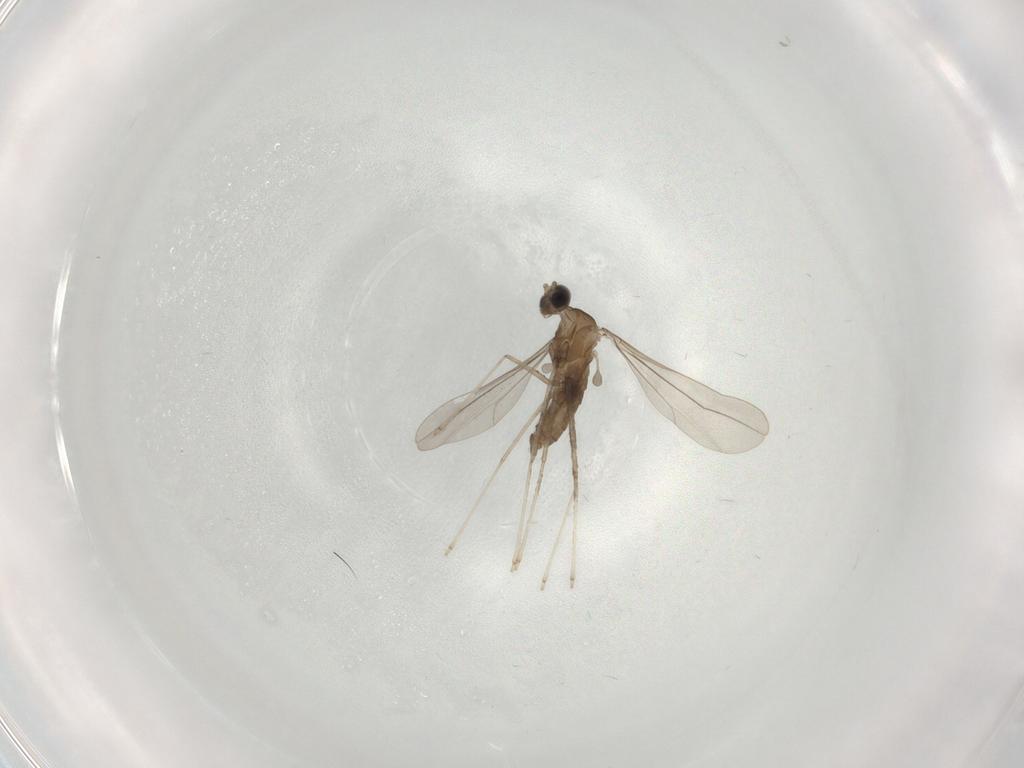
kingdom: Animalia
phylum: Arthropoda
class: Insecta
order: Diptera
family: Cecidomyiidae
